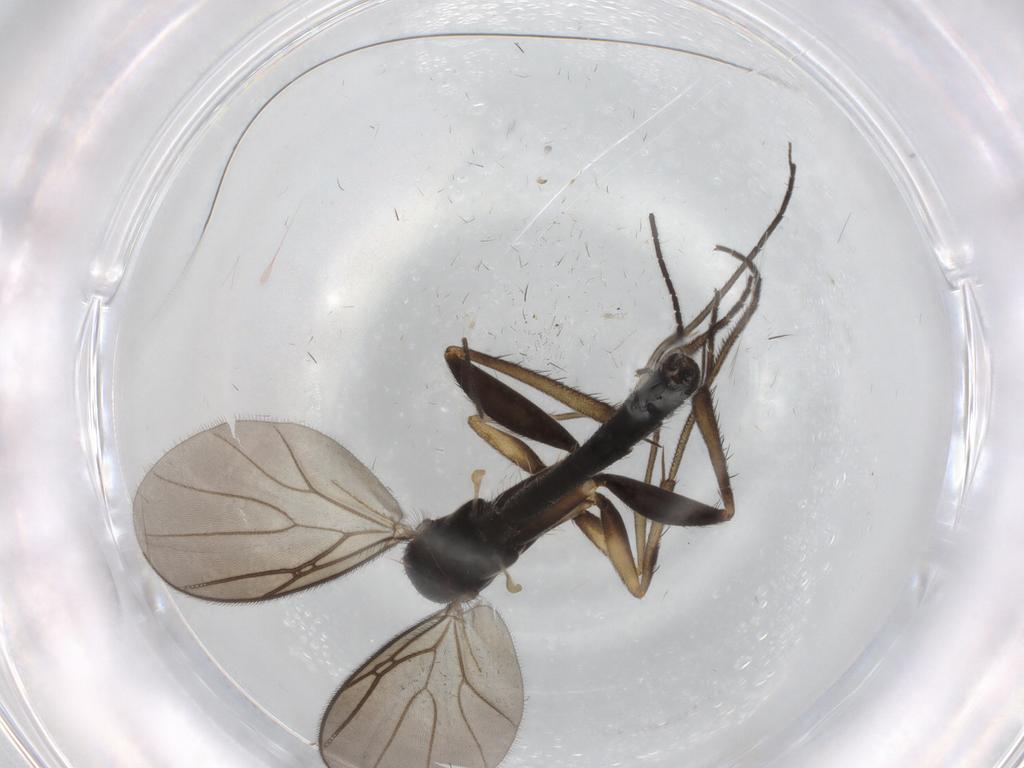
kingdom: Animalia
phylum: Arthropoda
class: Insecta
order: Diptera
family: Sciaridae
